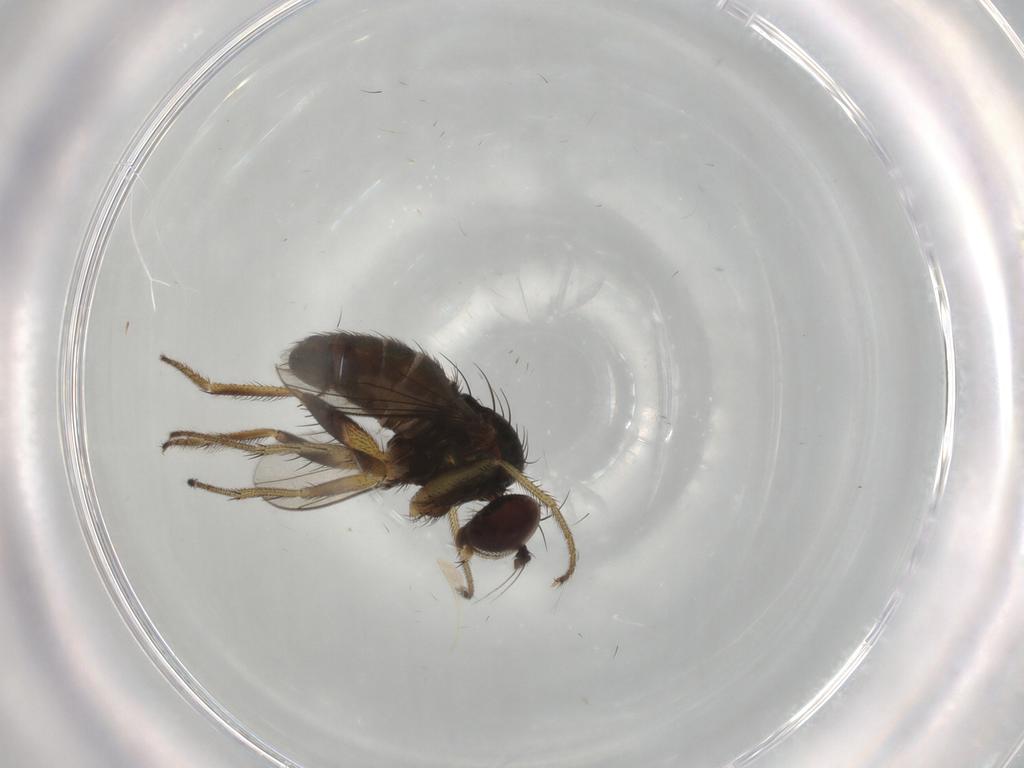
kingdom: Animalia
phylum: Arthropoda
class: Insecta
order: Diptera
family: Dolichopodidae
